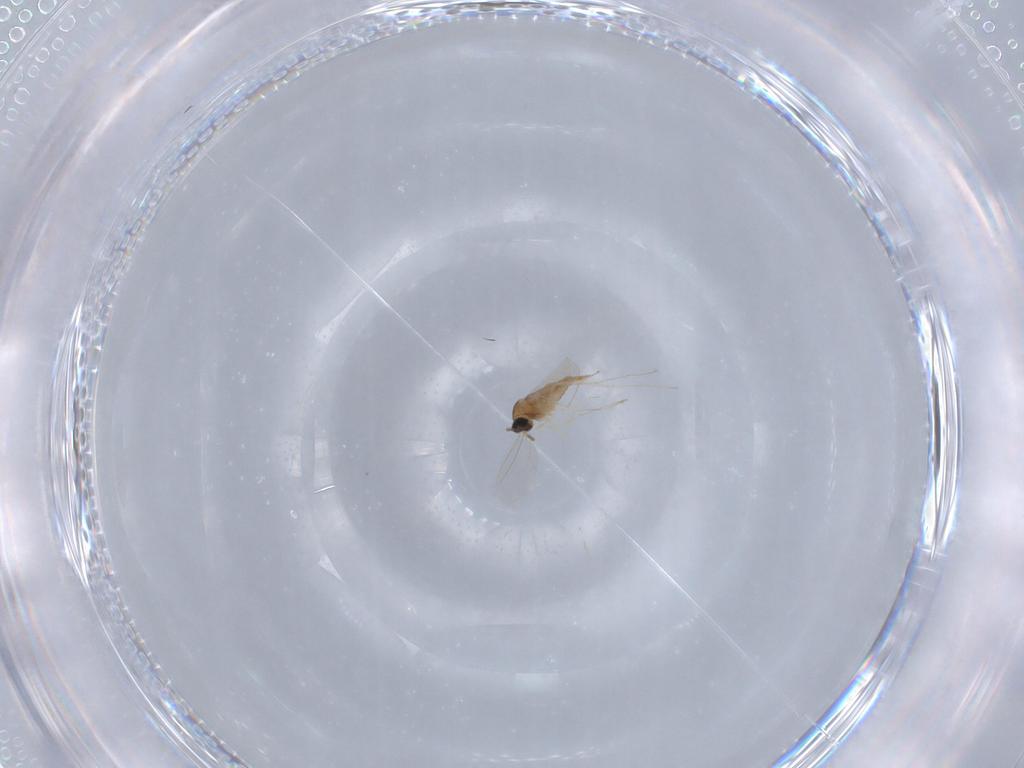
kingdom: Animalia
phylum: Arthropoda
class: Insecta
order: Diptera
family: Cecidomyiidae
